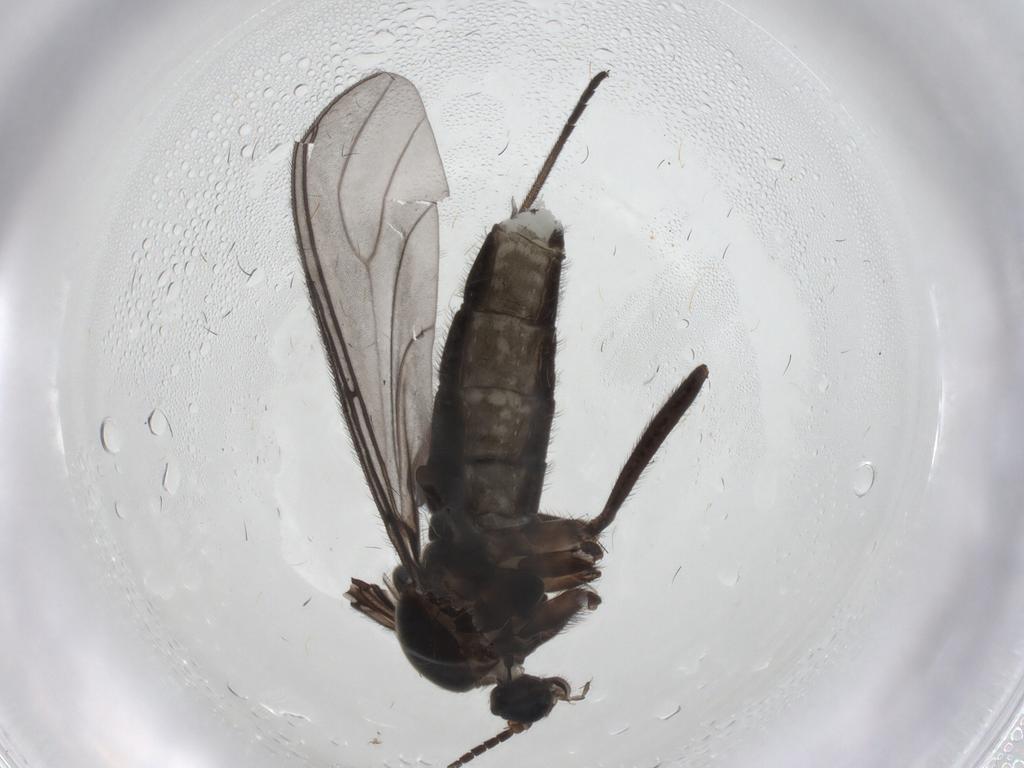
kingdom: Animalia
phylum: Arthropoda
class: Insecta
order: Diptera
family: Sciaridae
